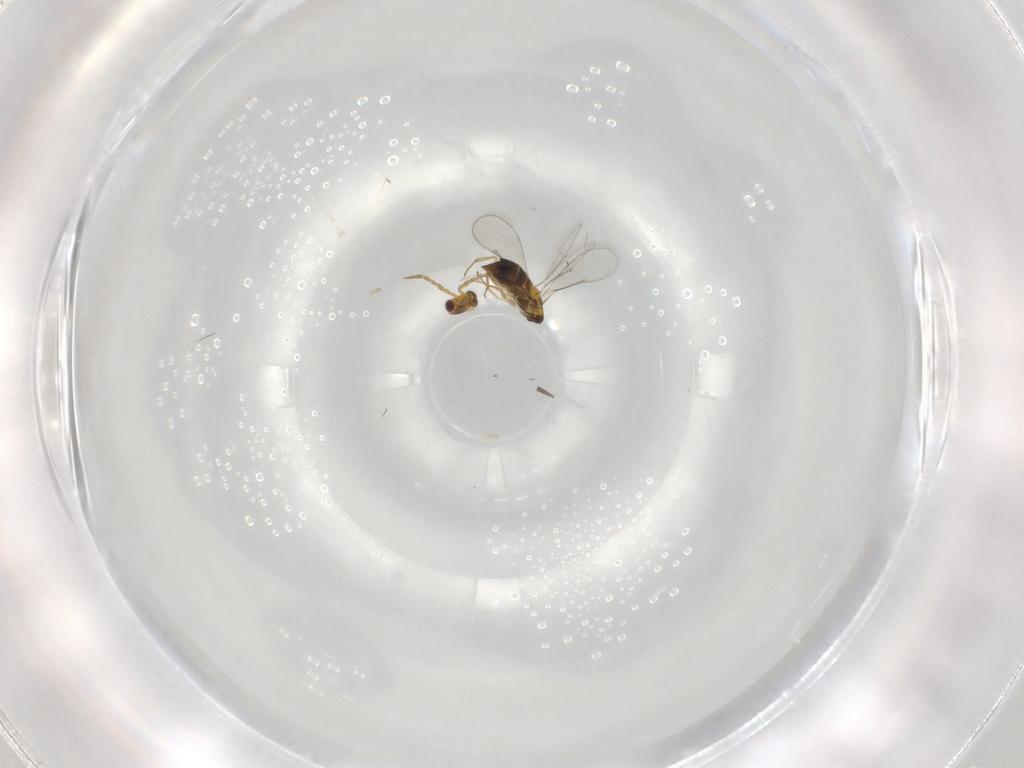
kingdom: Animalia
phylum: Arthropoda
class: Insecta
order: Hymenoptera
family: Aphelinidae
